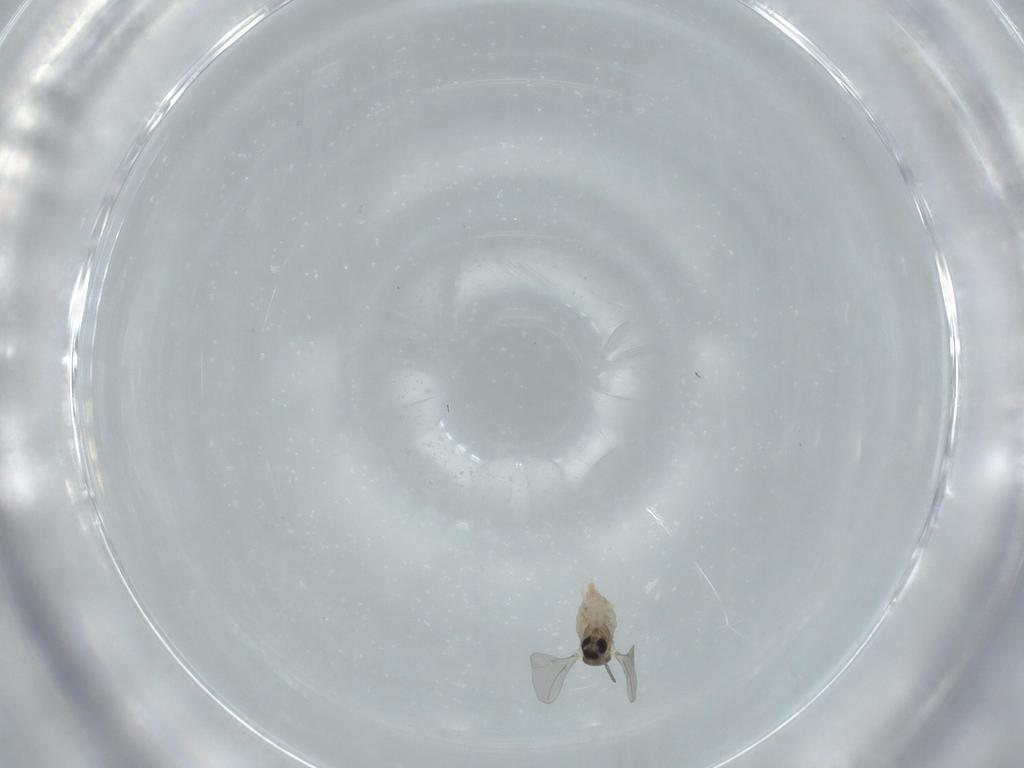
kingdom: Animalia
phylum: Arthropoda
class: Insecta
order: Diptera
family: Cecidomyiidae
